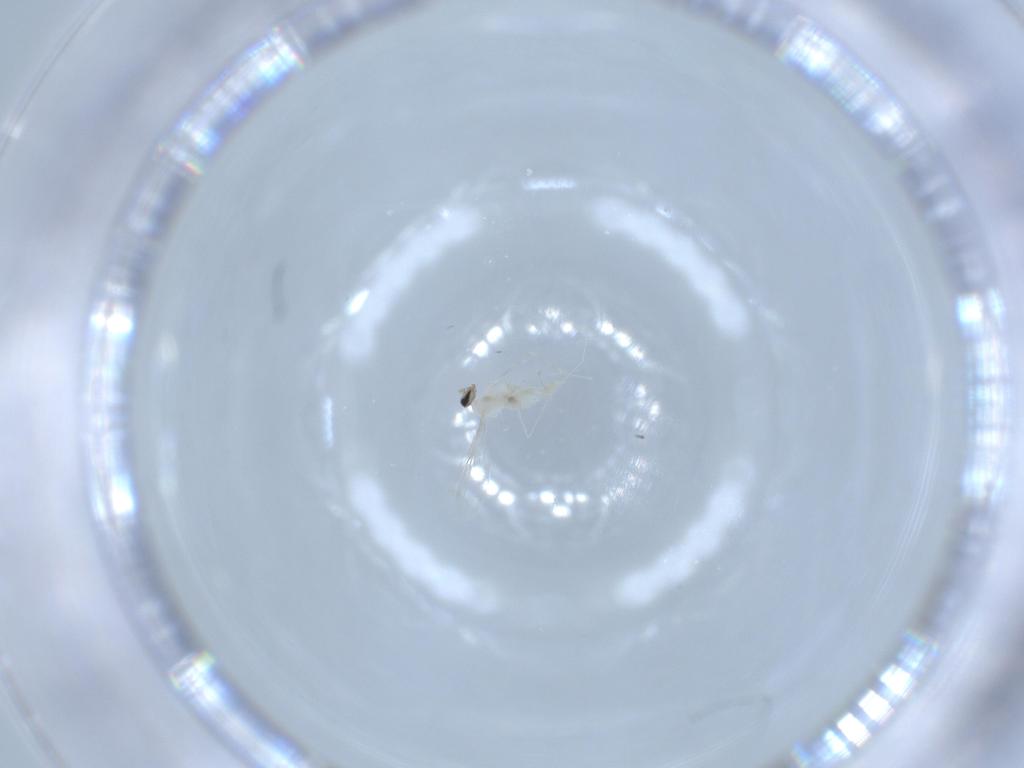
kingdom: Animalia
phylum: Arthropoda
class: Insecta
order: Diptera
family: Cecidomyiidae
